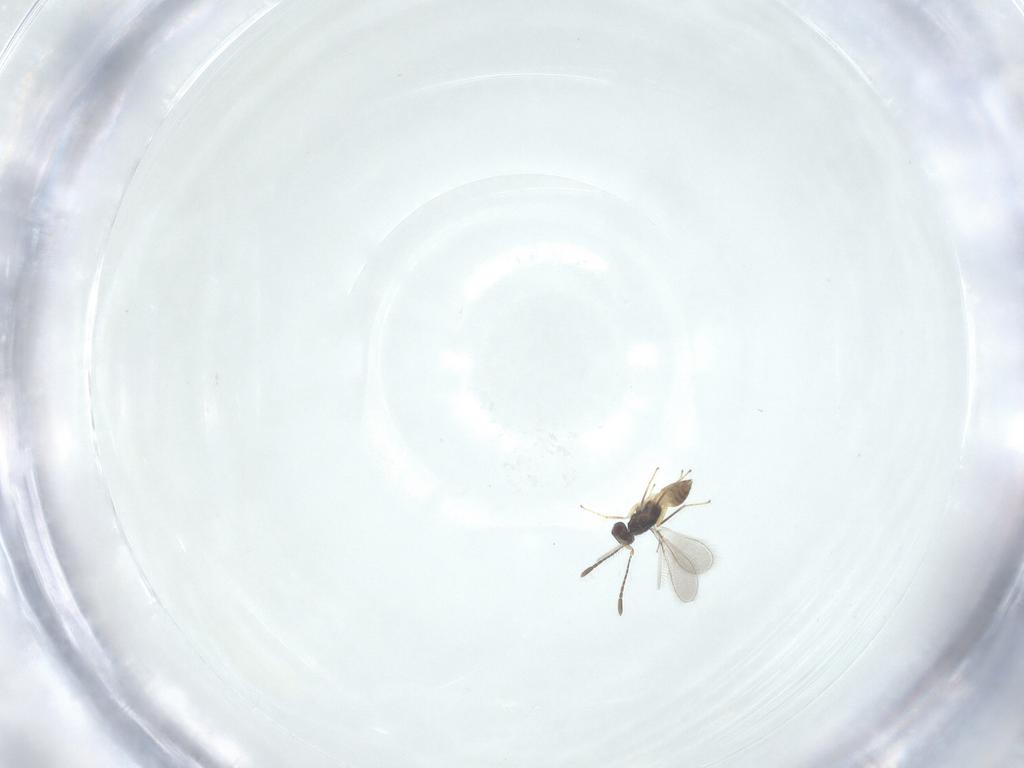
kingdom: Animalia
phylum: Arthropoda
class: Insecta
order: Hymenoptera
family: Mymaridae
